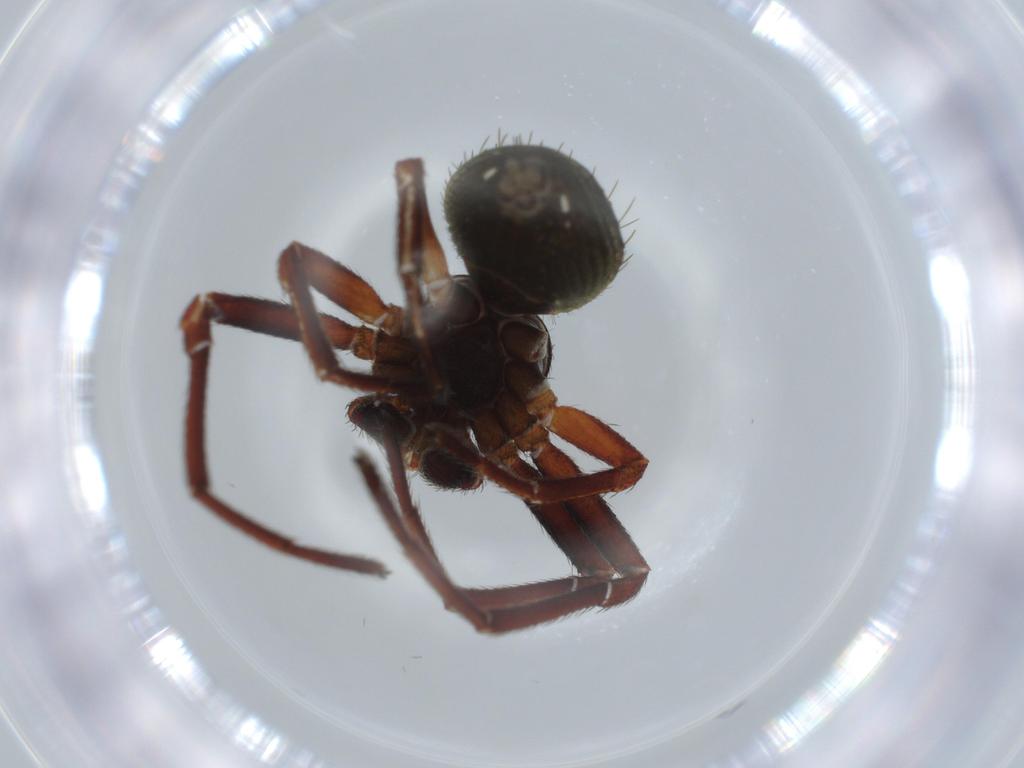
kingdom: Animalia
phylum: Arthropoda
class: Arachnida
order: Araneae
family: Thomisidae
